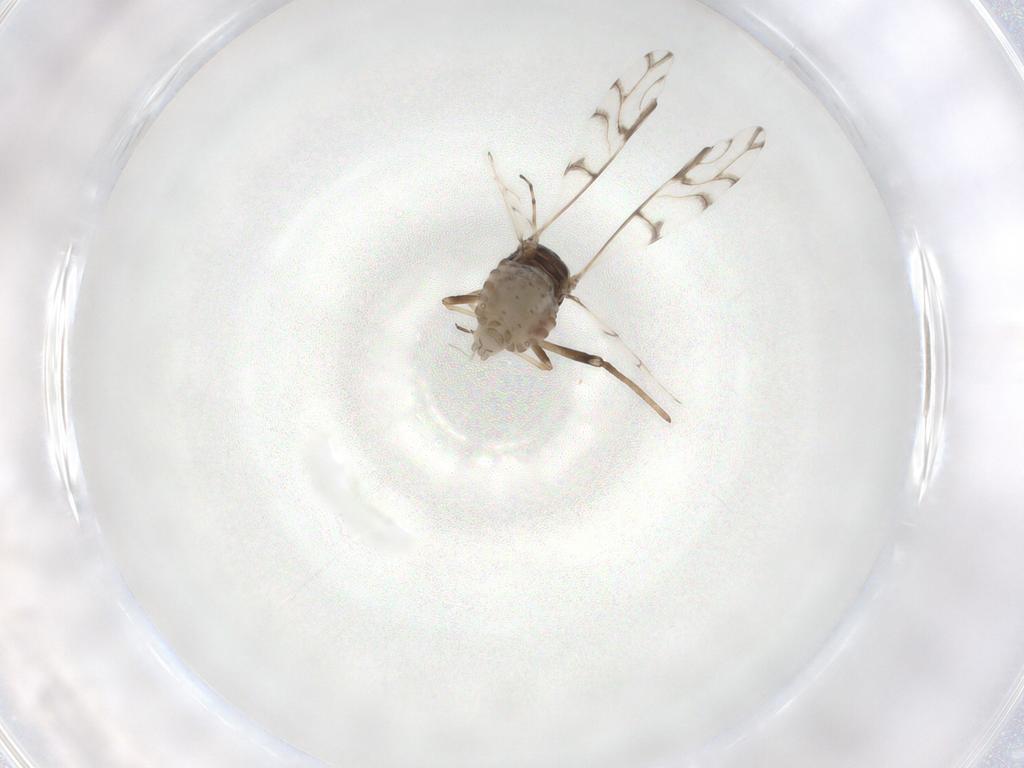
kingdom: Animalia
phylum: Arthropoda
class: Insecta
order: Hemiptera
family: Aphididae
